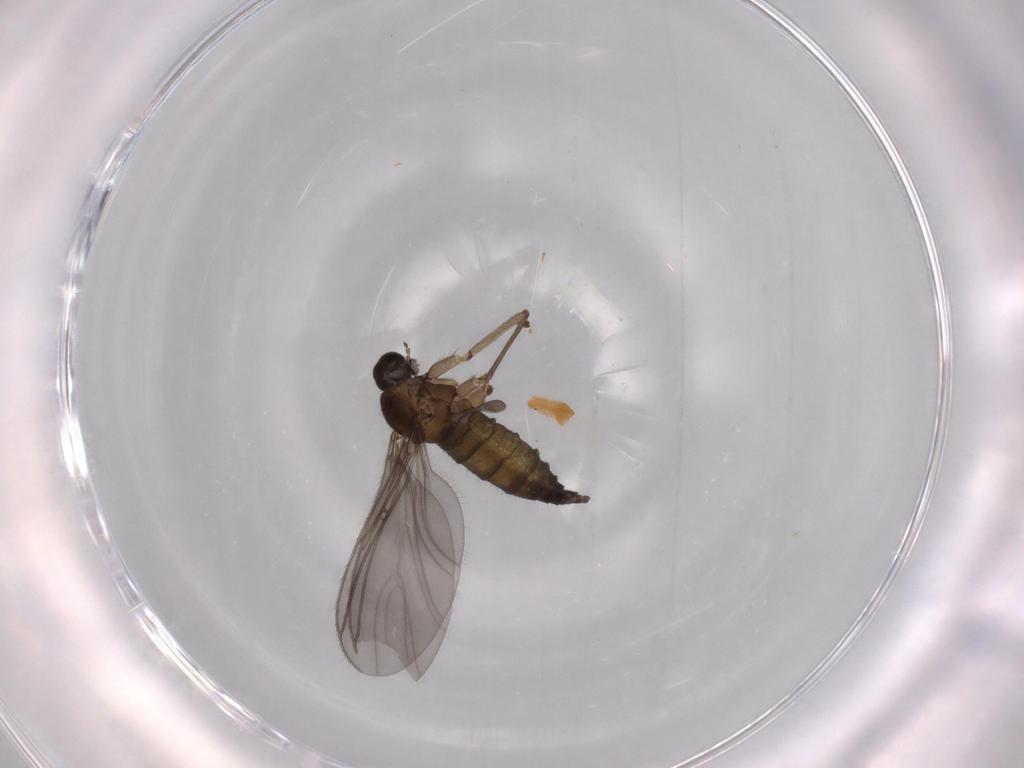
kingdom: Animalia
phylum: Arthropoda
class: Insecta
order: Diptera
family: Sciaridae
